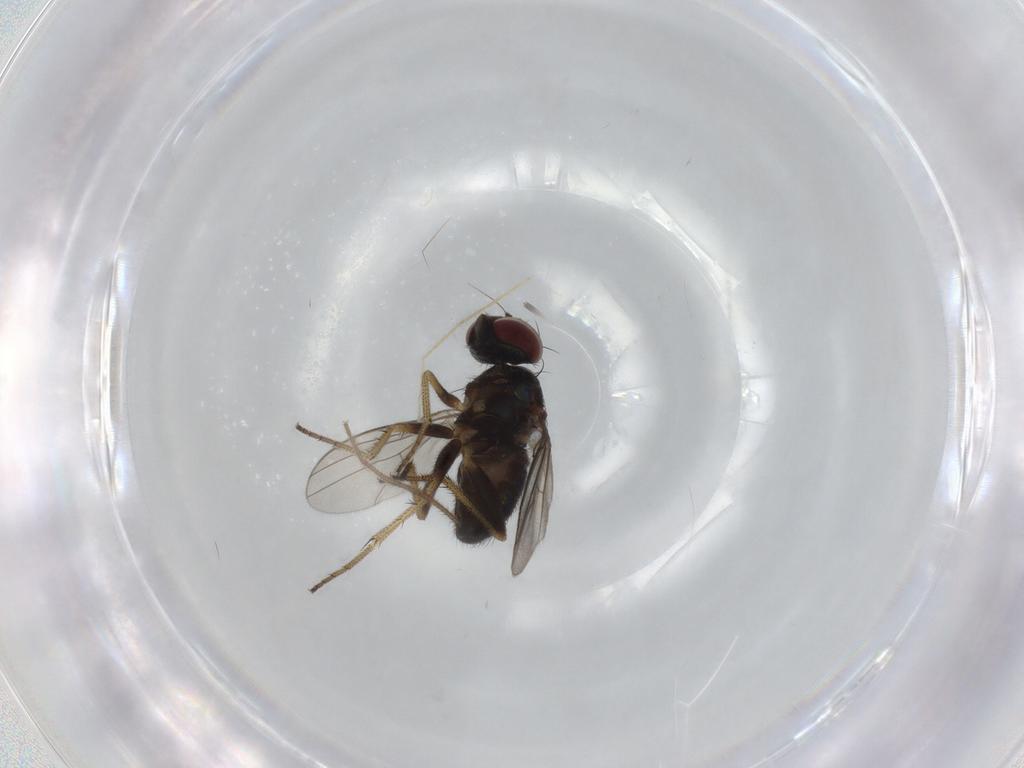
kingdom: Animalia
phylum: Arthropoda
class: Insecta
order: Diptera
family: Dolichopodidae
